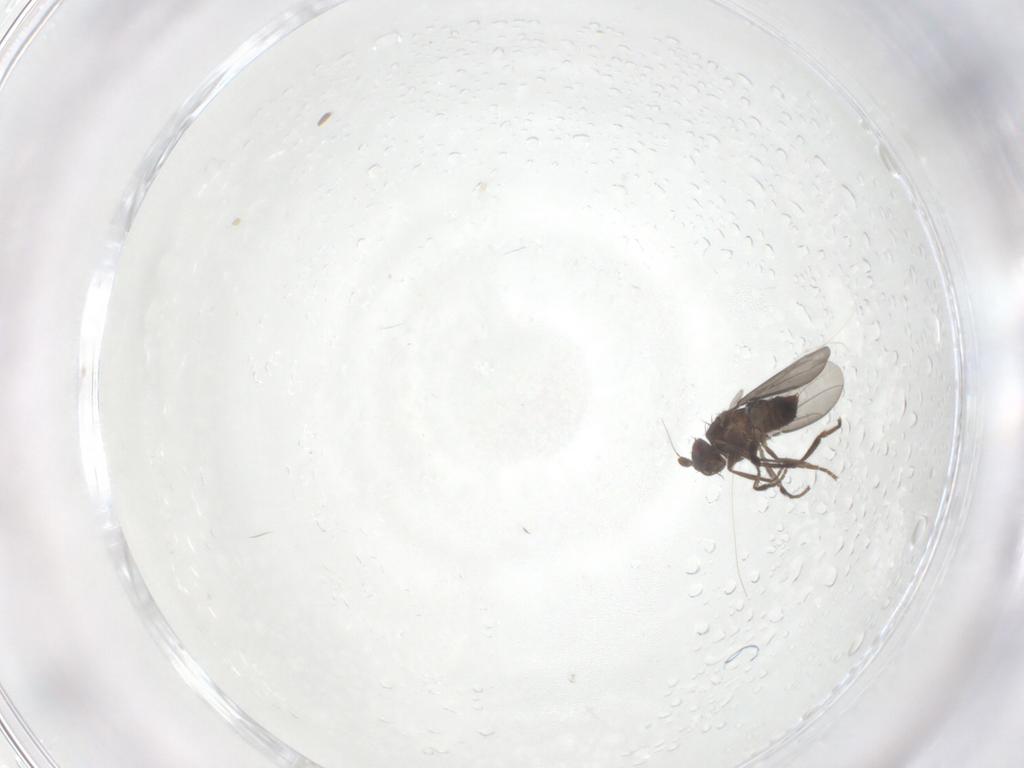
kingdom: Animalia
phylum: Arthropoda
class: Insecta
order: Diptera
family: Sphaeroceridae
